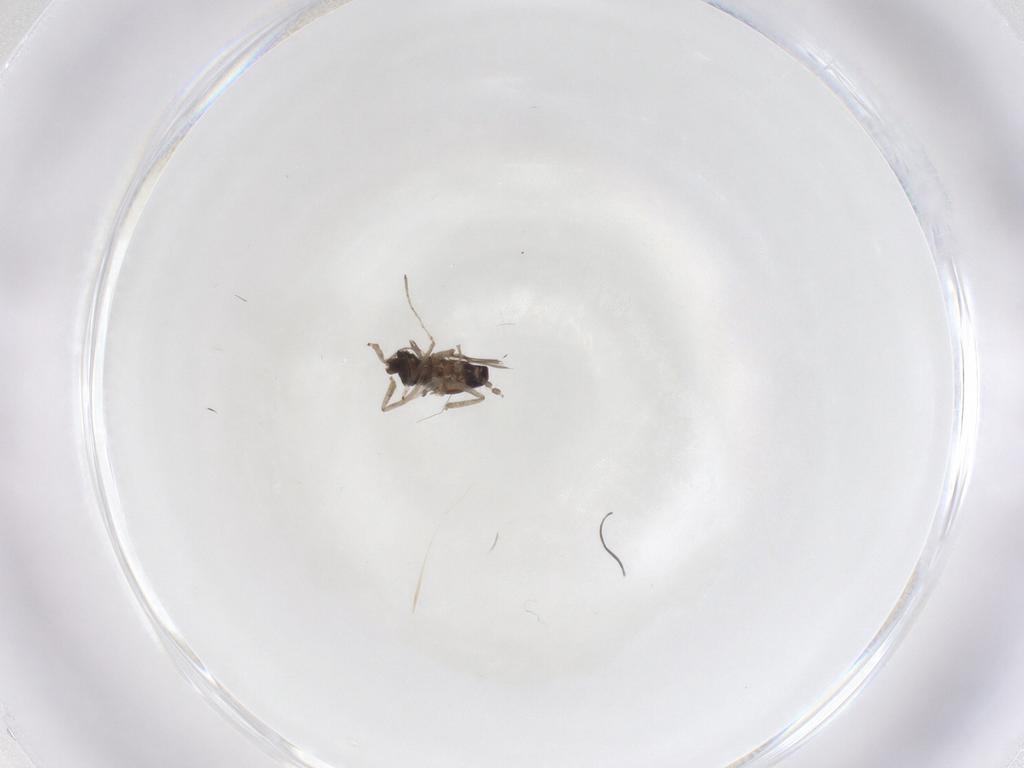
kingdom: Animalia
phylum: Arthropoda
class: Insecta
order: Diptera
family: Cecidomyiidae
